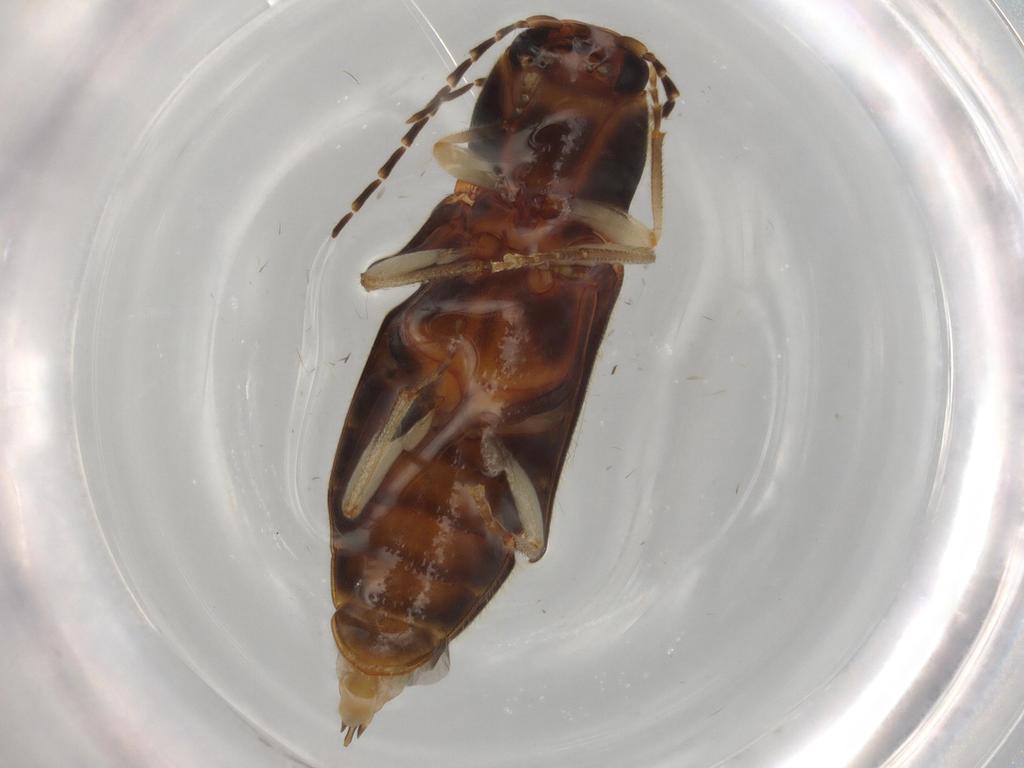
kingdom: Animalia
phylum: Arthropoda
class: Insecta
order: Coleoptera
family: Elateridae
